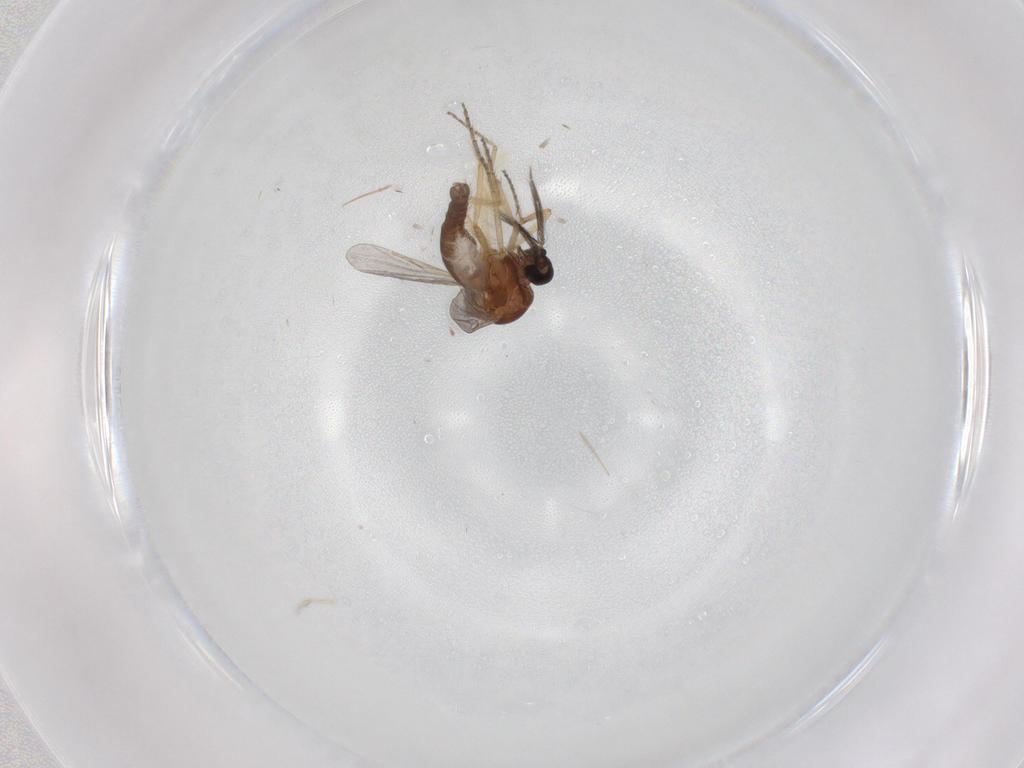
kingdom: Animalia
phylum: Arthropoda
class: Insecta
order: Diptera
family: Ceratopogonidae
